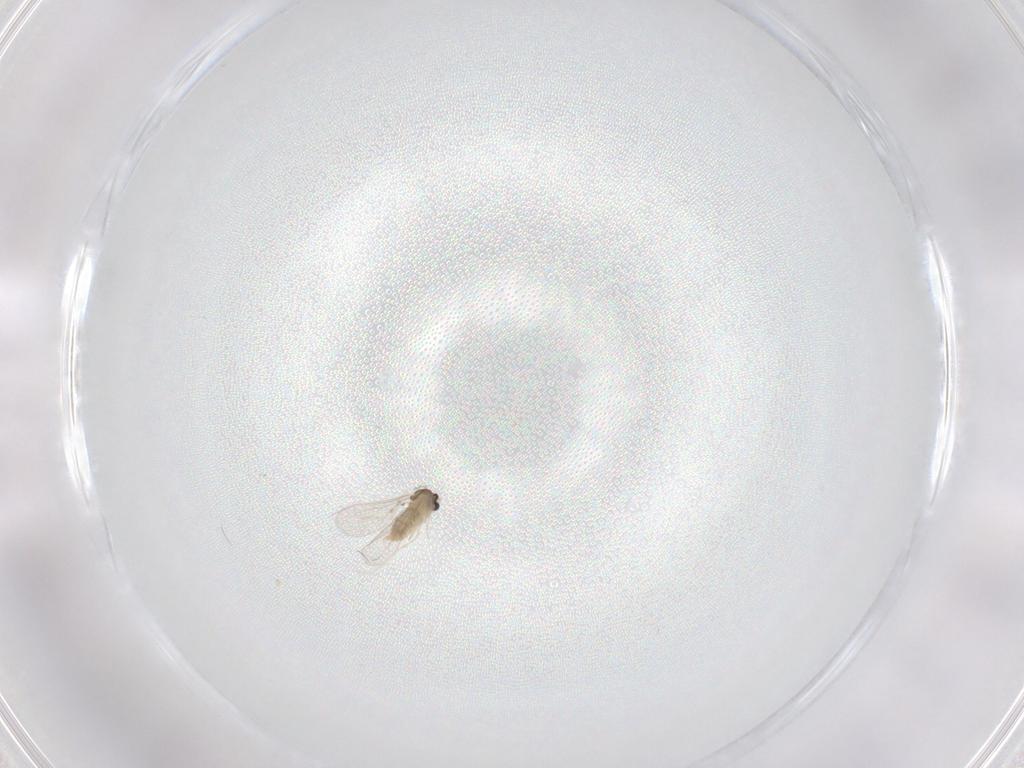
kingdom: Animalia
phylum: Arthropoda
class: Insecta
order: Diptera
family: Cecidomyiidae
